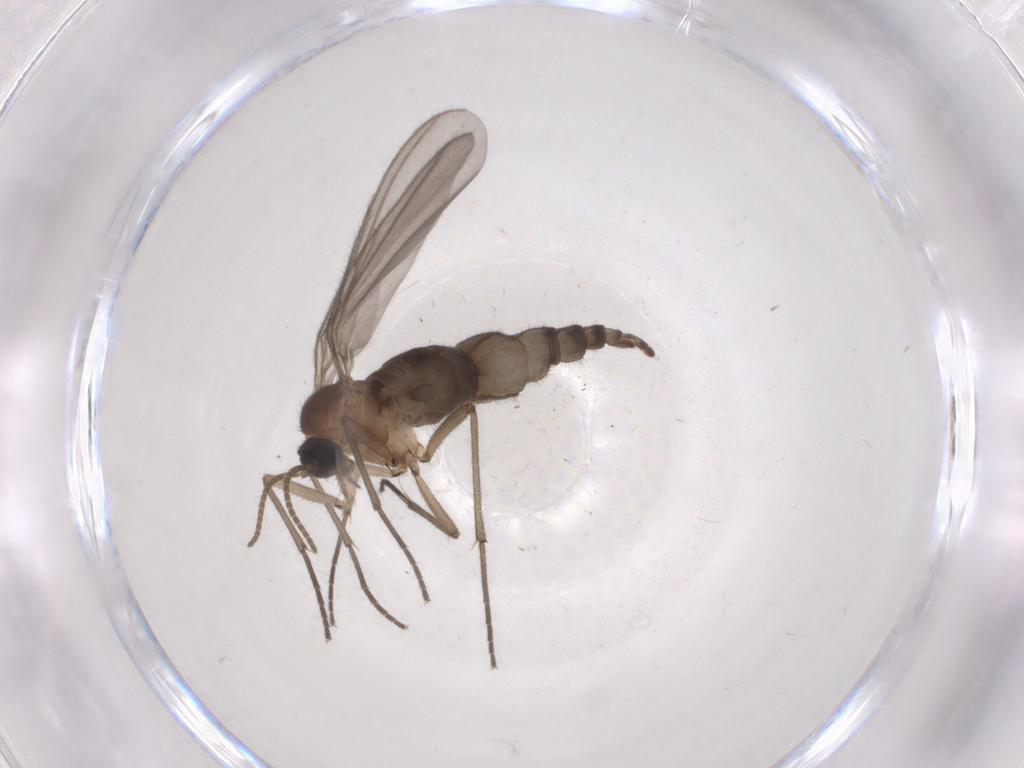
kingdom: Animalia
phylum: Arthropoda
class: Insecta
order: Diptera
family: Cecidomyiidae
